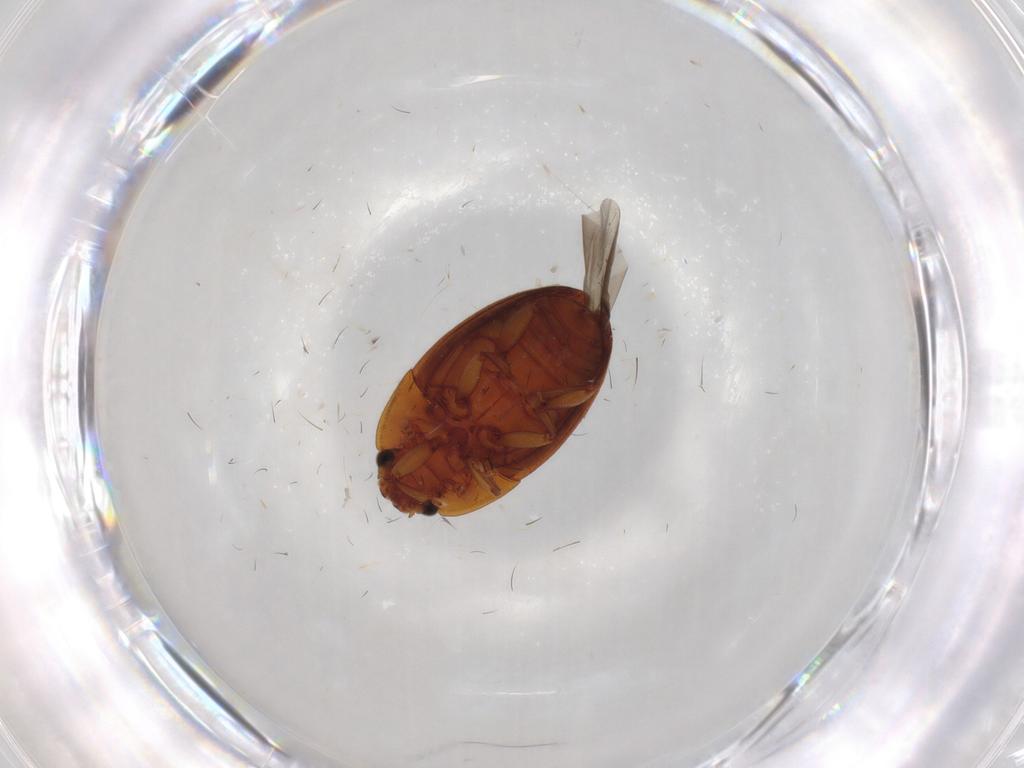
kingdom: Animalia
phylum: Arthropoda
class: Insecta
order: Coleoptera
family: Nitidulidae
